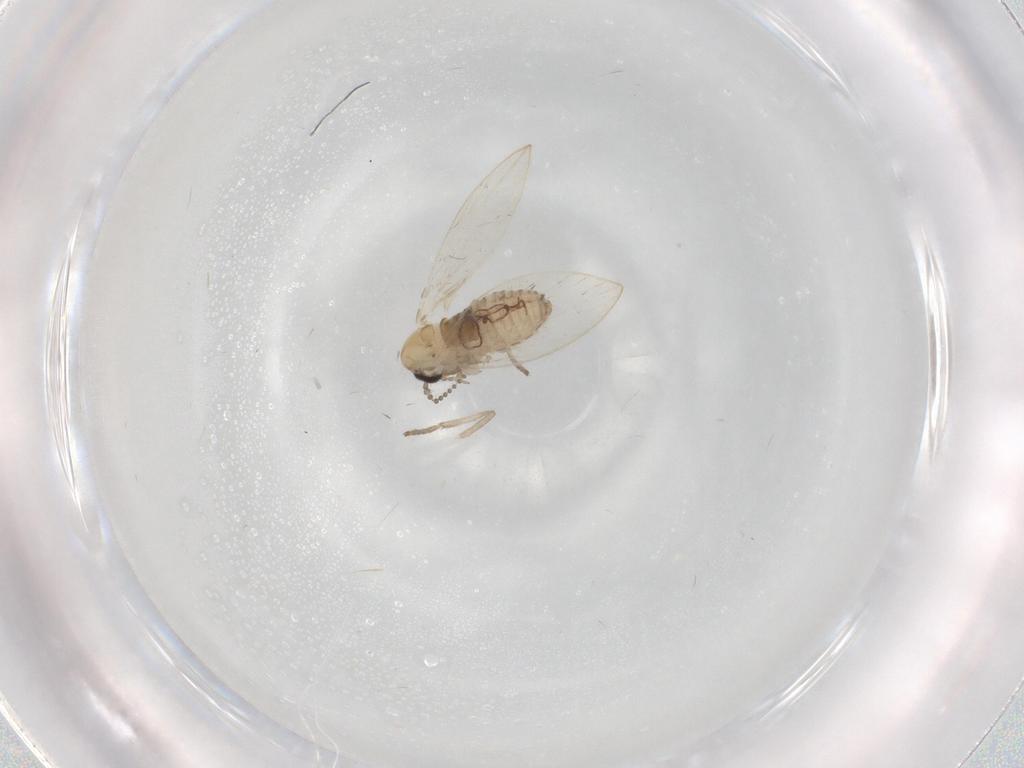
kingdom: Animalia
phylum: Arthropoda
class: Insecta
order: Diptera
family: Psychodidae
